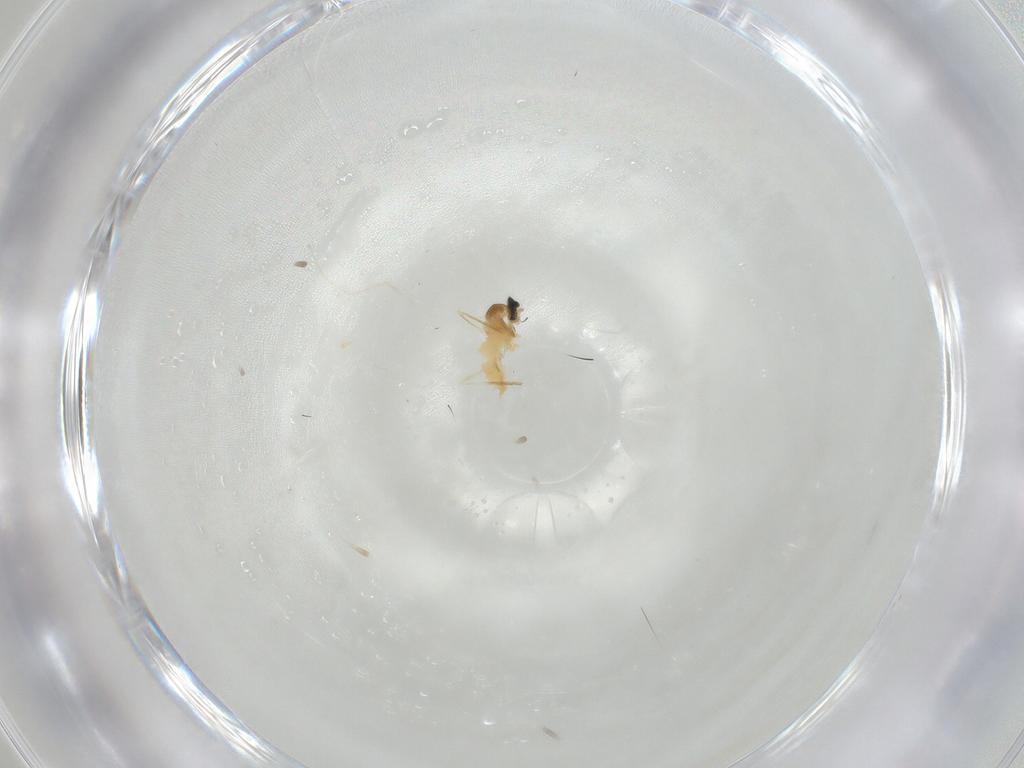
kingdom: Animalia
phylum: Arthropoda
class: Insecta
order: Diptera
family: Cecidomyiidae
